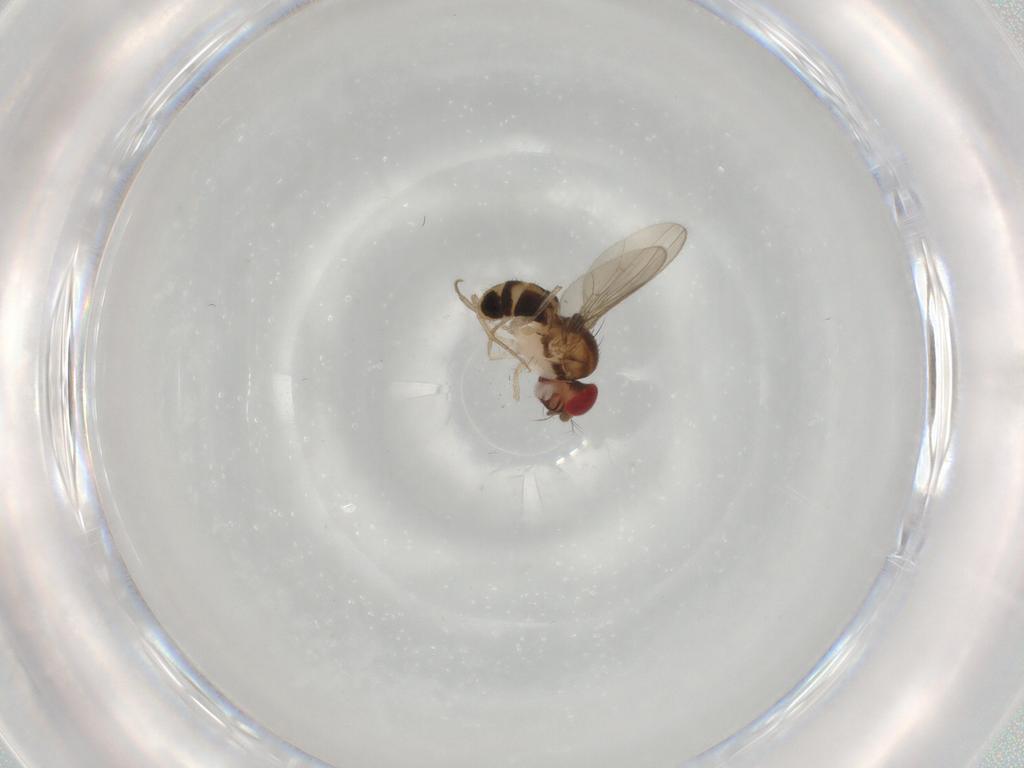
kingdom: Animalia
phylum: Arthropoda
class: Insecta
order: Diptera
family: Drosophilidae
